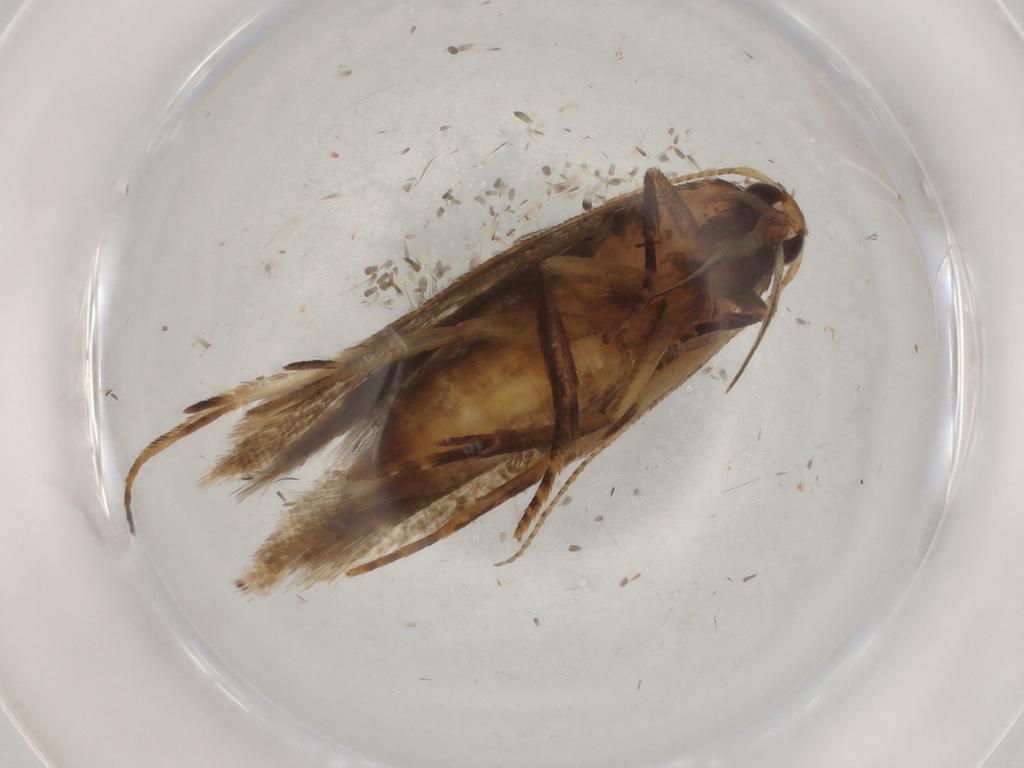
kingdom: Animalia
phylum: Arthropoda
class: Insecta
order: Lepidoptera
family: Gelechiidae
